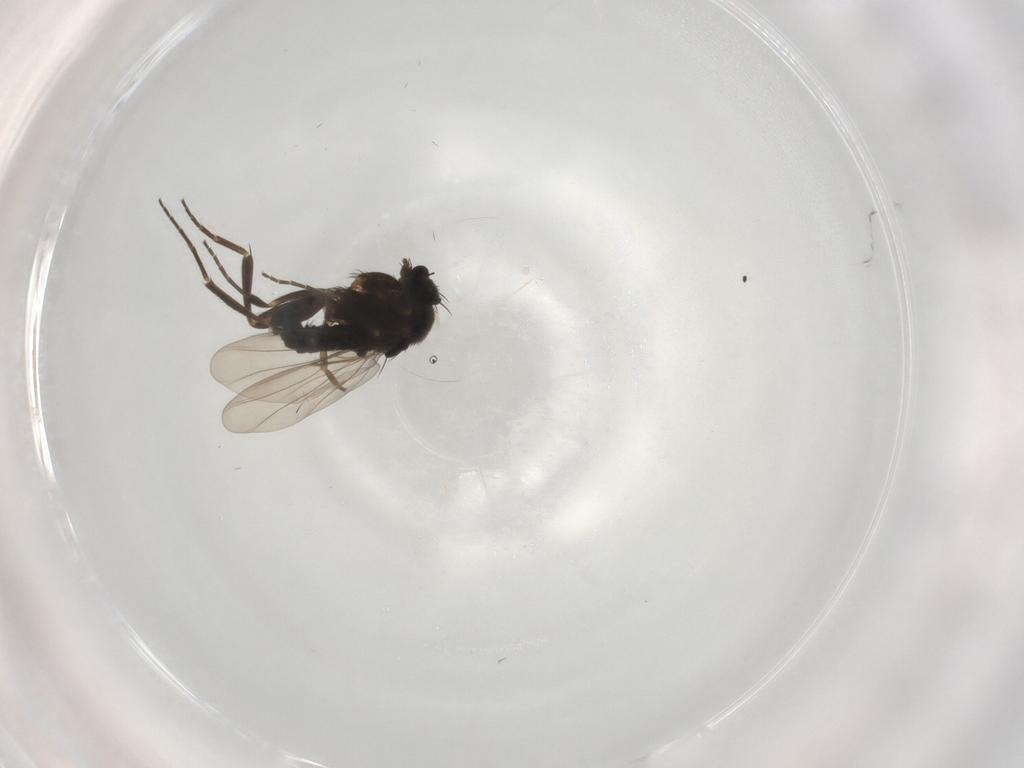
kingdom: Animalia
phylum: Arthropoda
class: Insecta
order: Diptera
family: Phoridae
